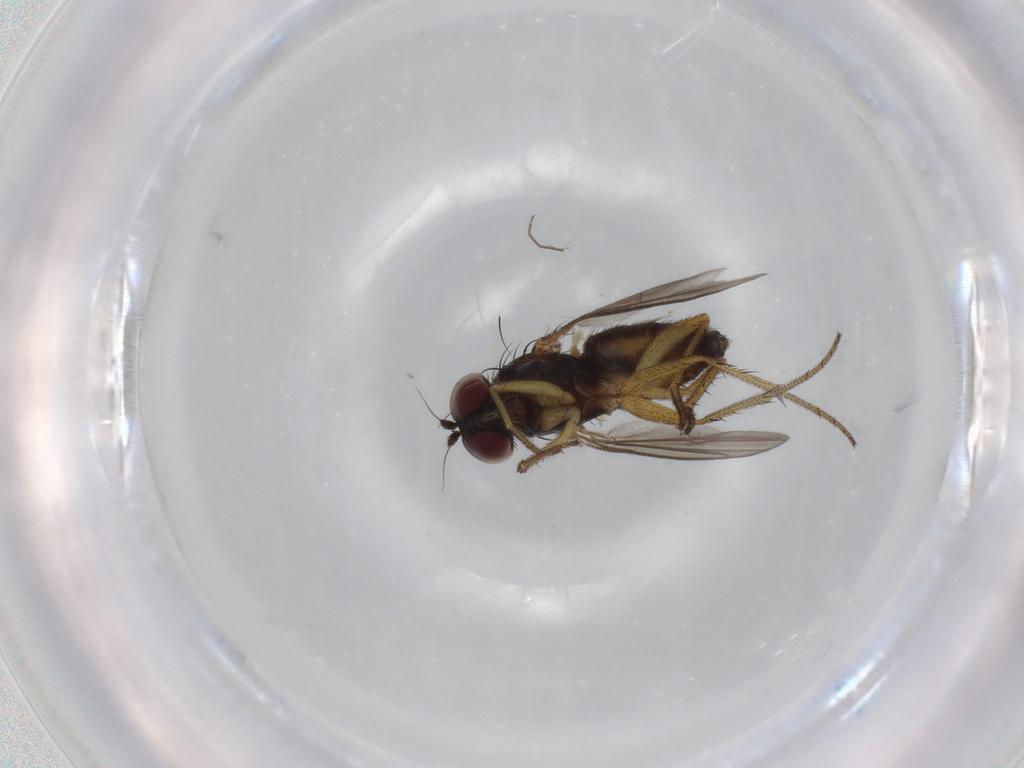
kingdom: Animalia
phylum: Arthropoda
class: Insecta
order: Diptera
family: Dolichopodidae
